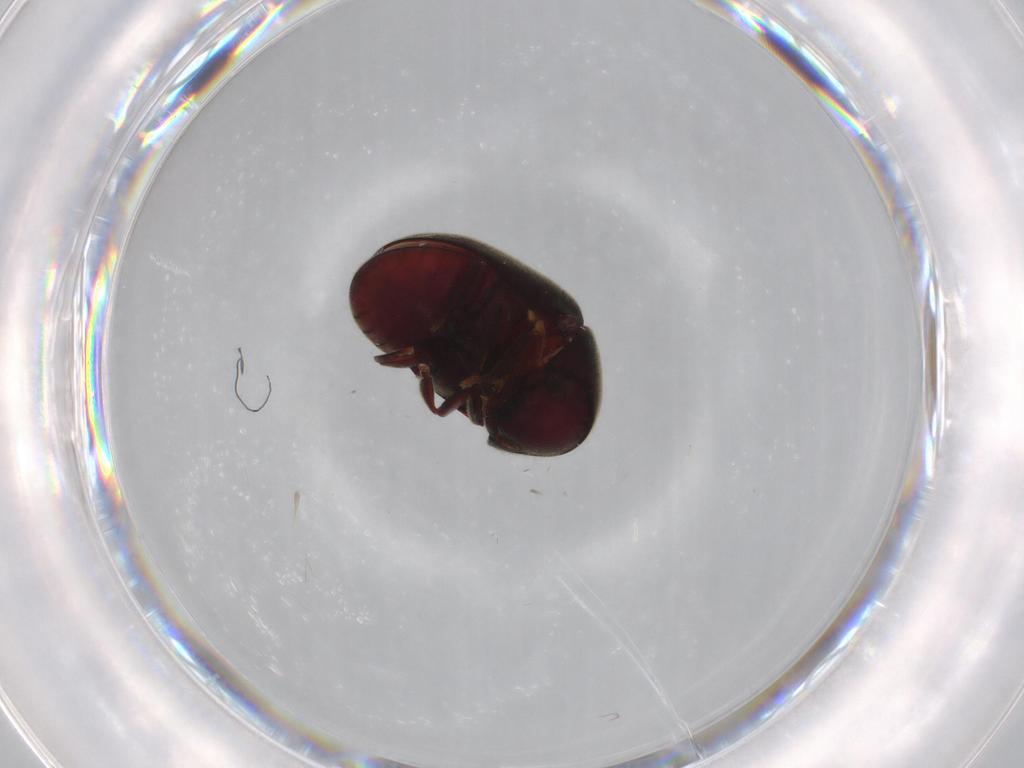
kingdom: Animalia
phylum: Arthropoda
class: Insecta
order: Coleoptera
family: Ptinidae
